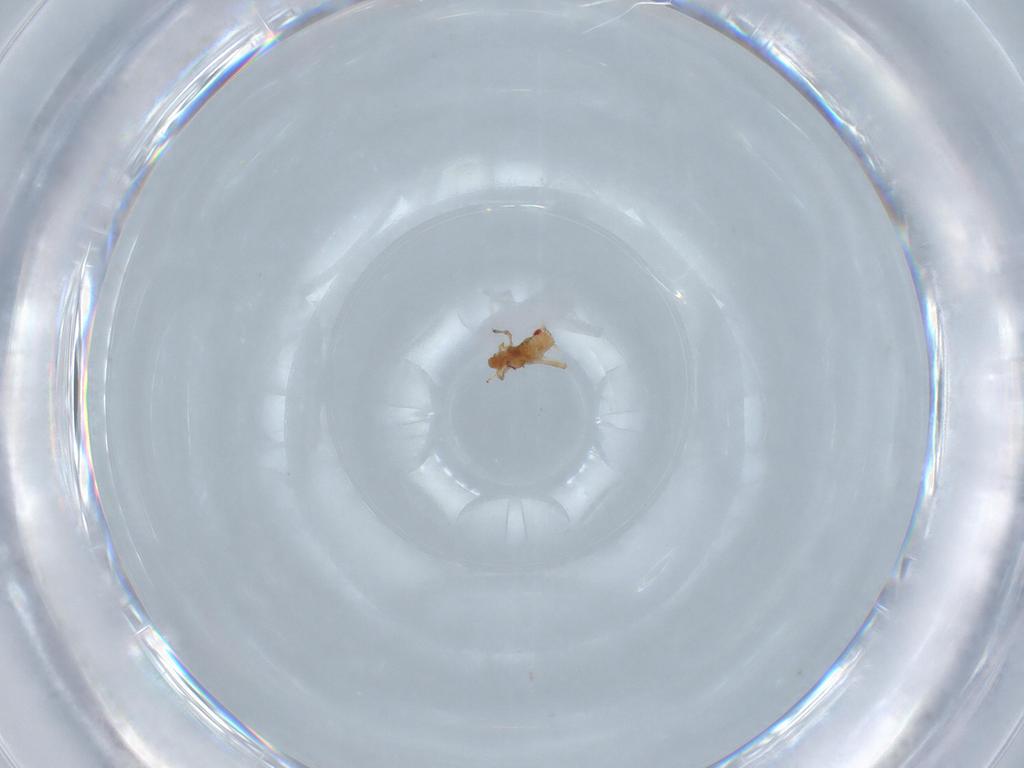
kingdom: Animalia
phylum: Arthropoda
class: Insecta
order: Hemiptera
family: Aphididae
